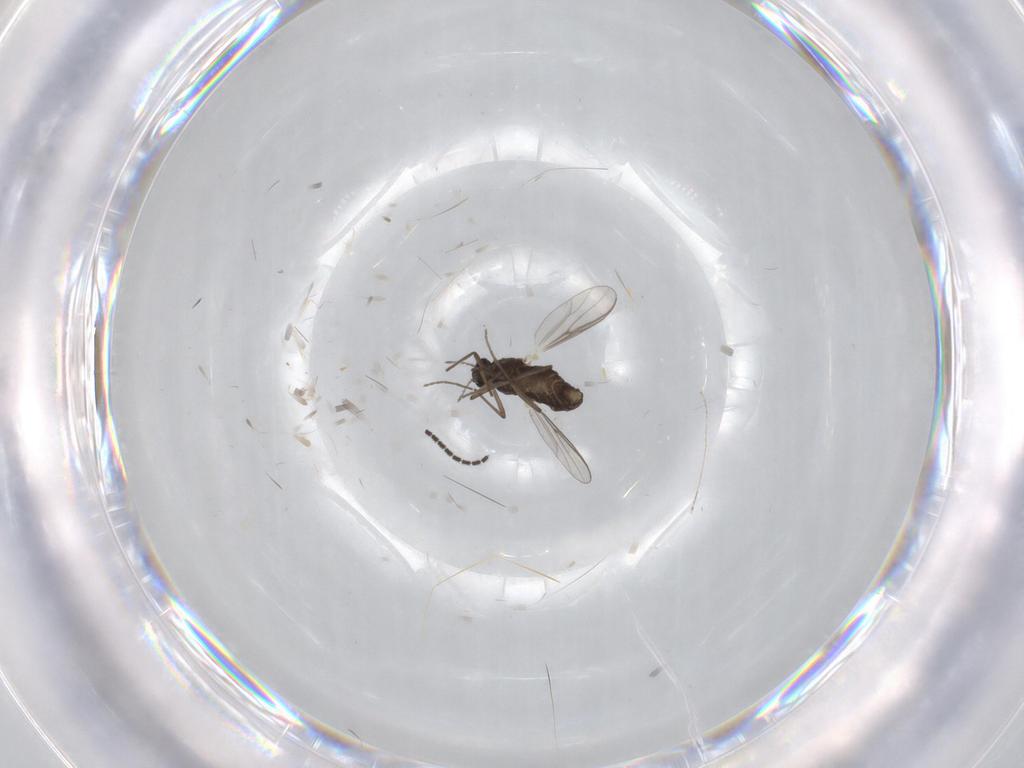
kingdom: Animalia
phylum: Arthropoda
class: Insecta
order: Diptera
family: Chironomidae
